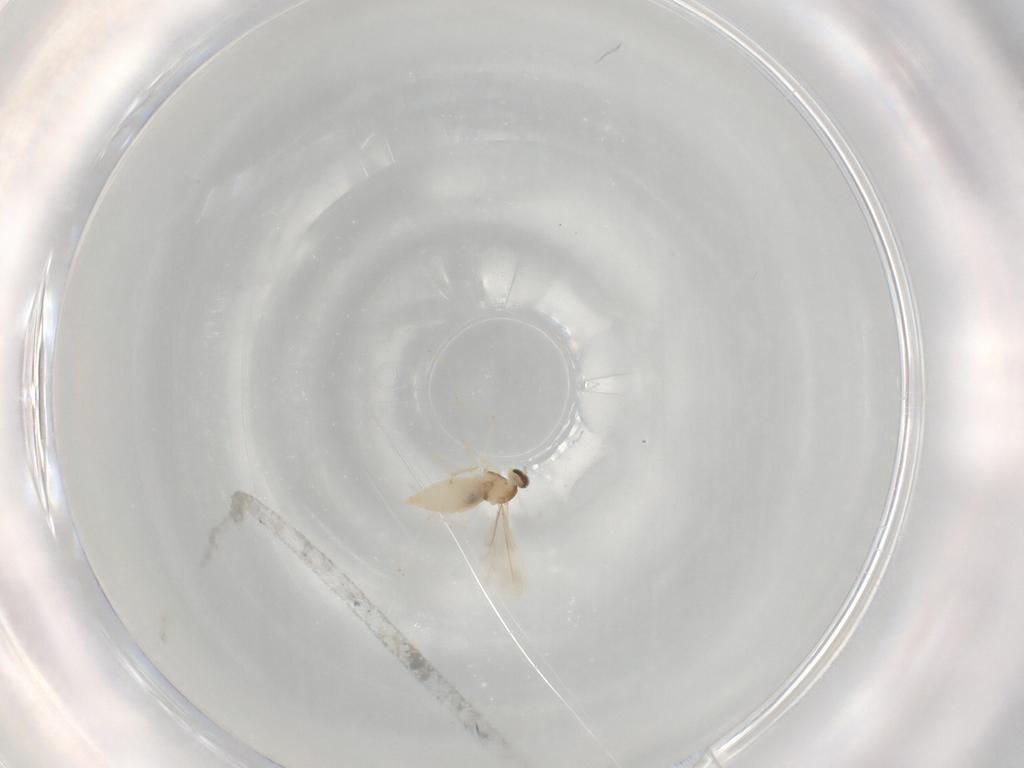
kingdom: Animalia
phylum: Arthropoda
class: Insecta
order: Diptera
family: Cecidomyiidae
